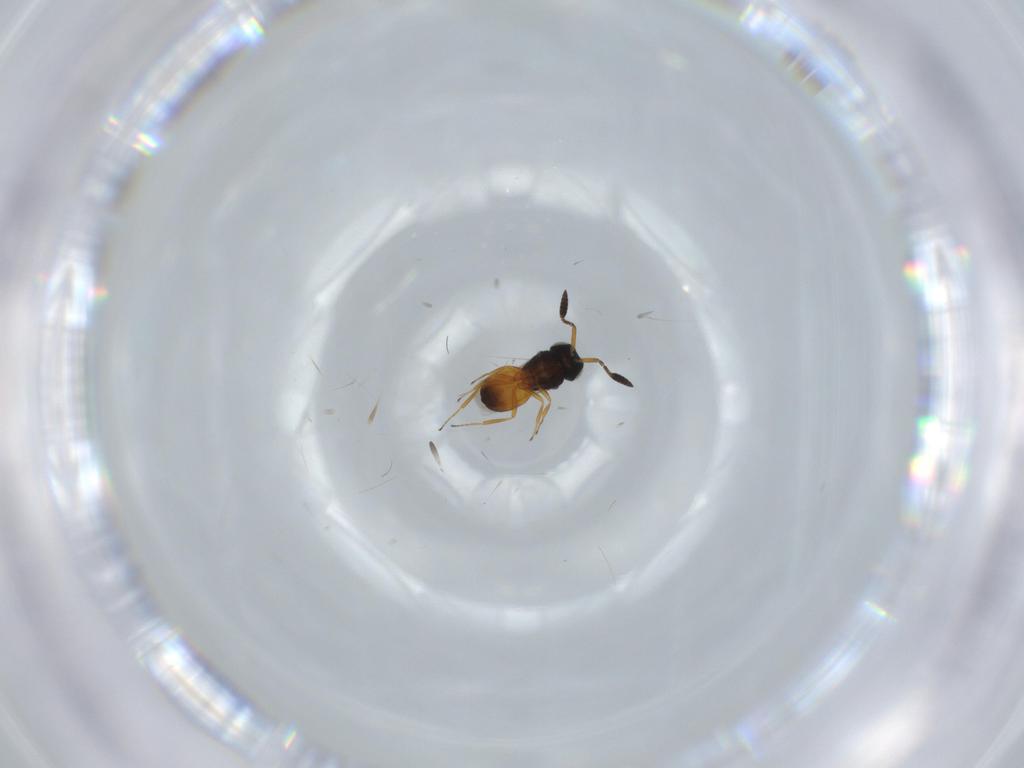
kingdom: Animalia
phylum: Arthropoda
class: Insecta
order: Hymenoptera
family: Scelionidae
